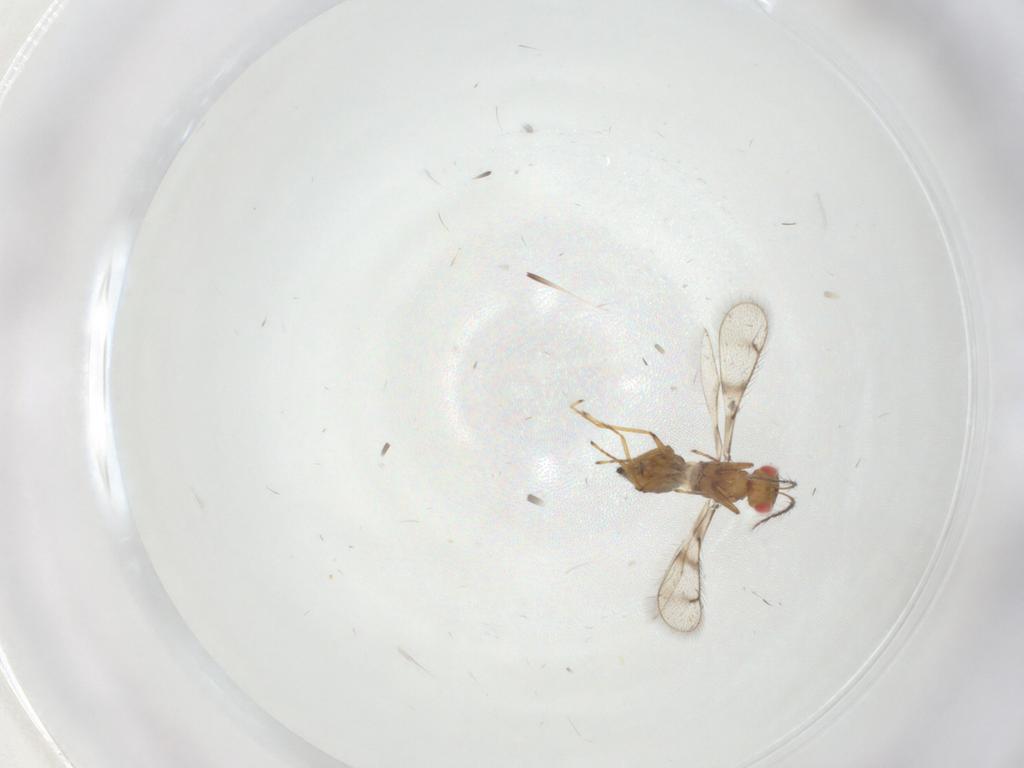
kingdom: Animalia
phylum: Arthropoda
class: Insecta
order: Hymenoptera
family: Eulophidae
